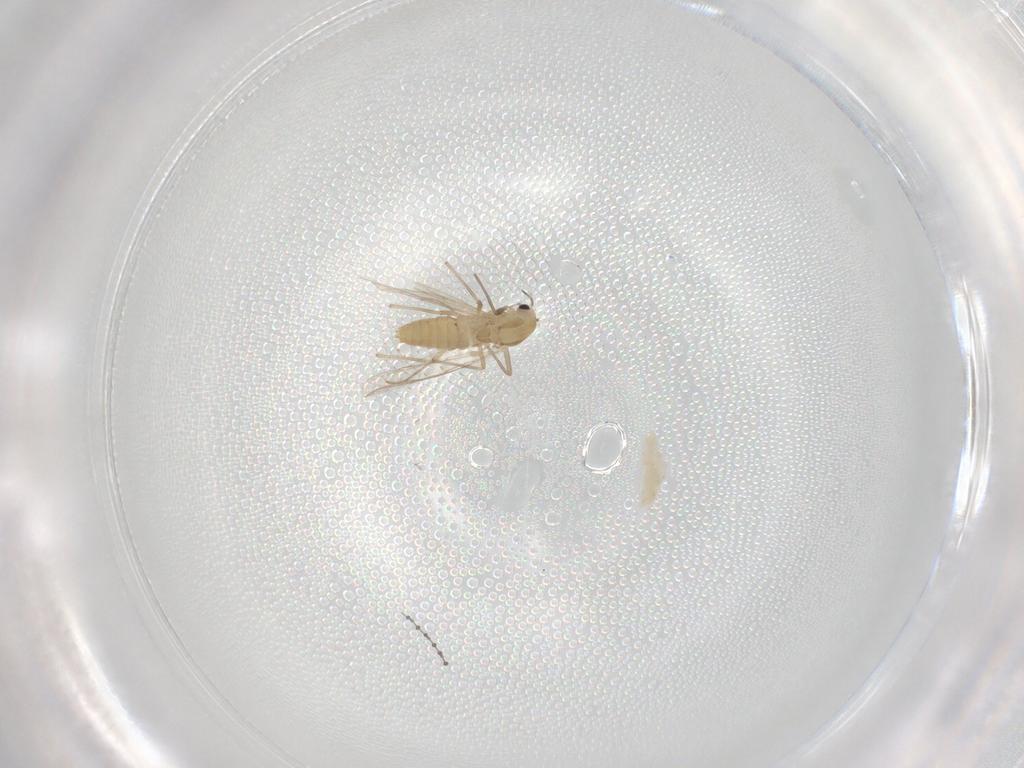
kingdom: Animalia
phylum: Arthropoda
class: Insecta
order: Diptera
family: Chironomidae
